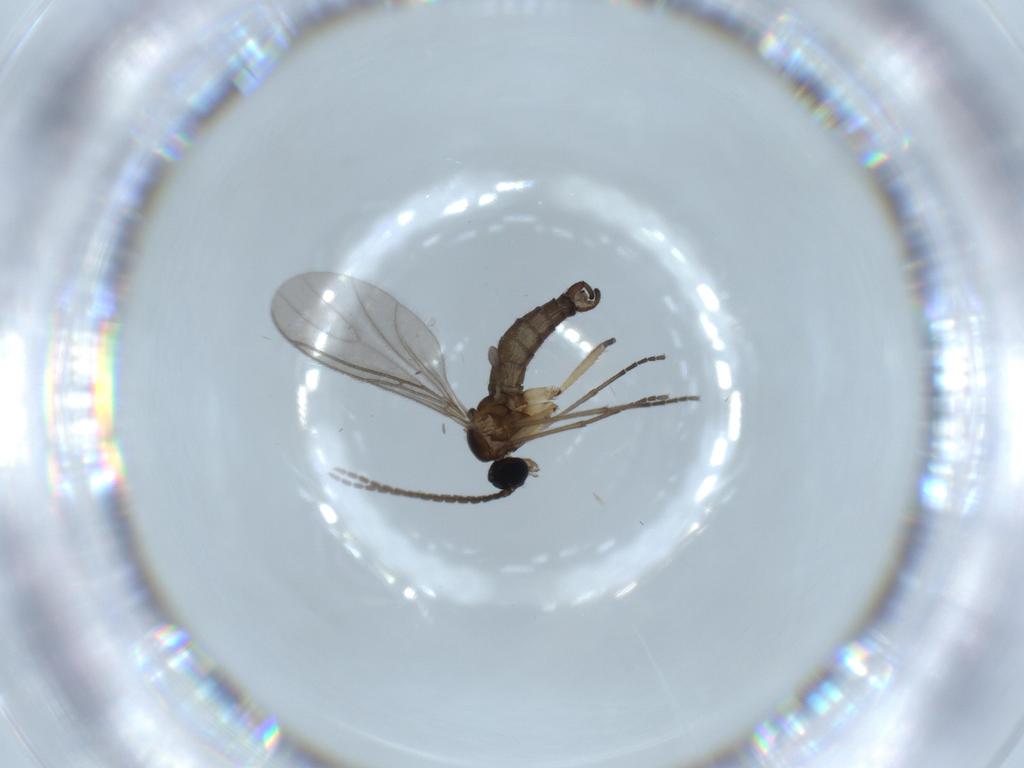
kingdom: Animalia
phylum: Arthropoda
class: Insecta
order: Diptera
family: Sciaridae
